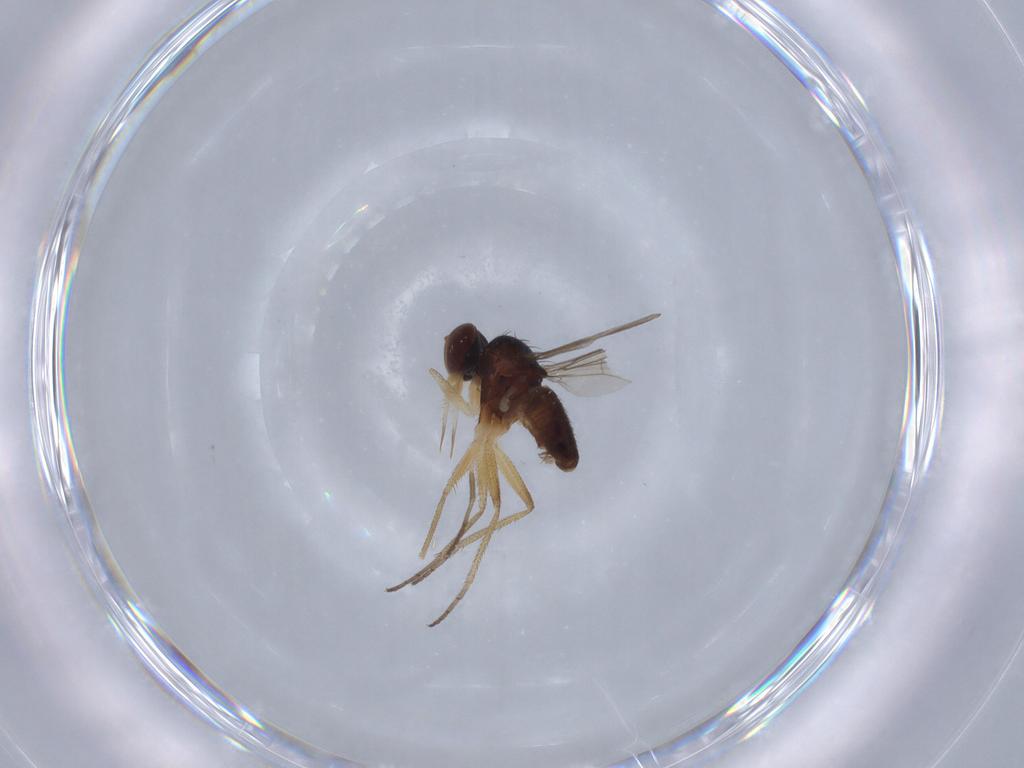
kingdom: Animalia
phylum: Arthropoda
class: Insecta
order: Diptera
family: Dolichopodidae
